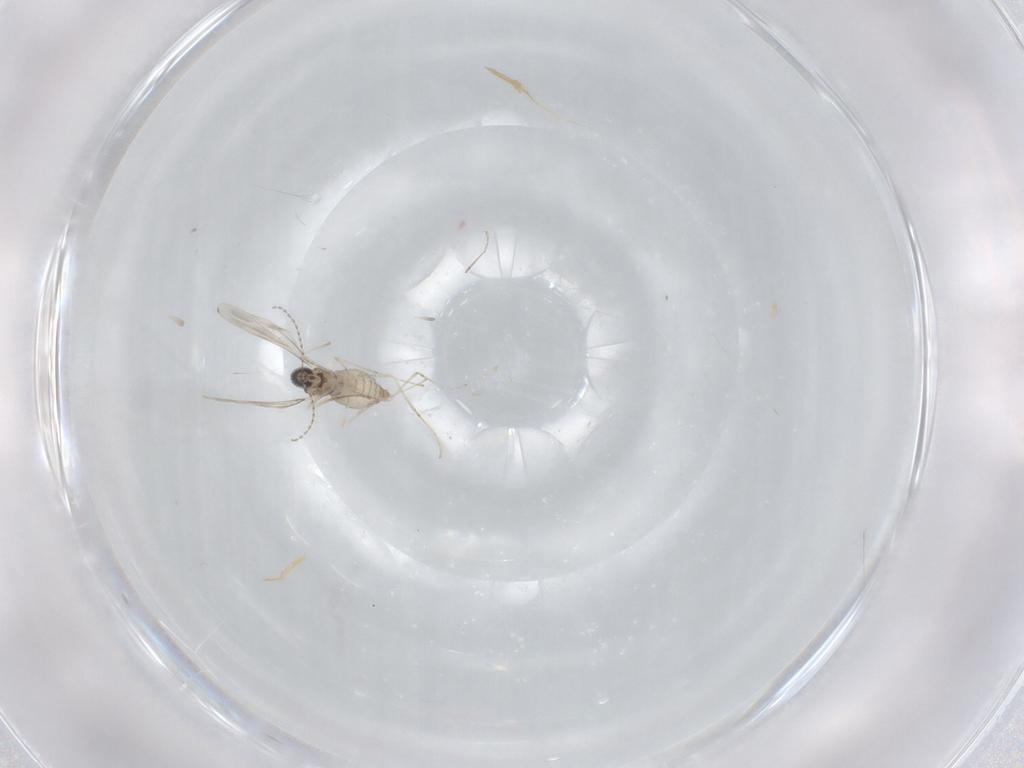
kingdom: Animalia
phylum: Arthropoda
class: Insecta
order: Diptera
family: Cecidomyiidae
